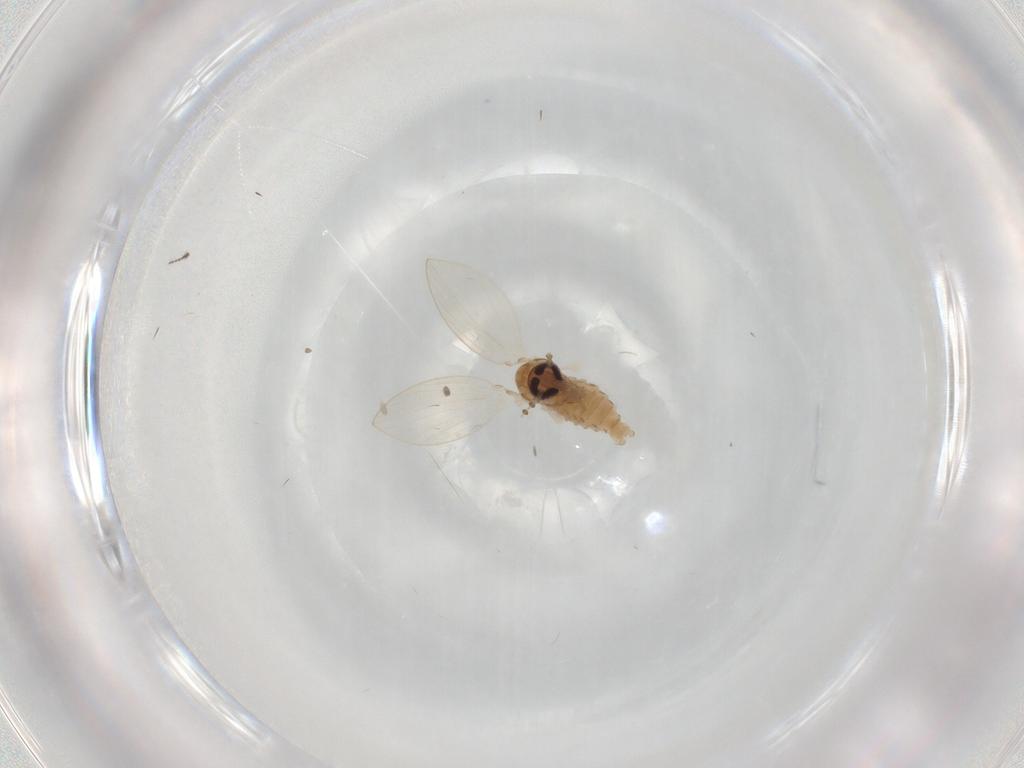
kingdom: Animalia
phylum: Arthropoda
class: Insecta
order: Diptera
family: Psychodidae
